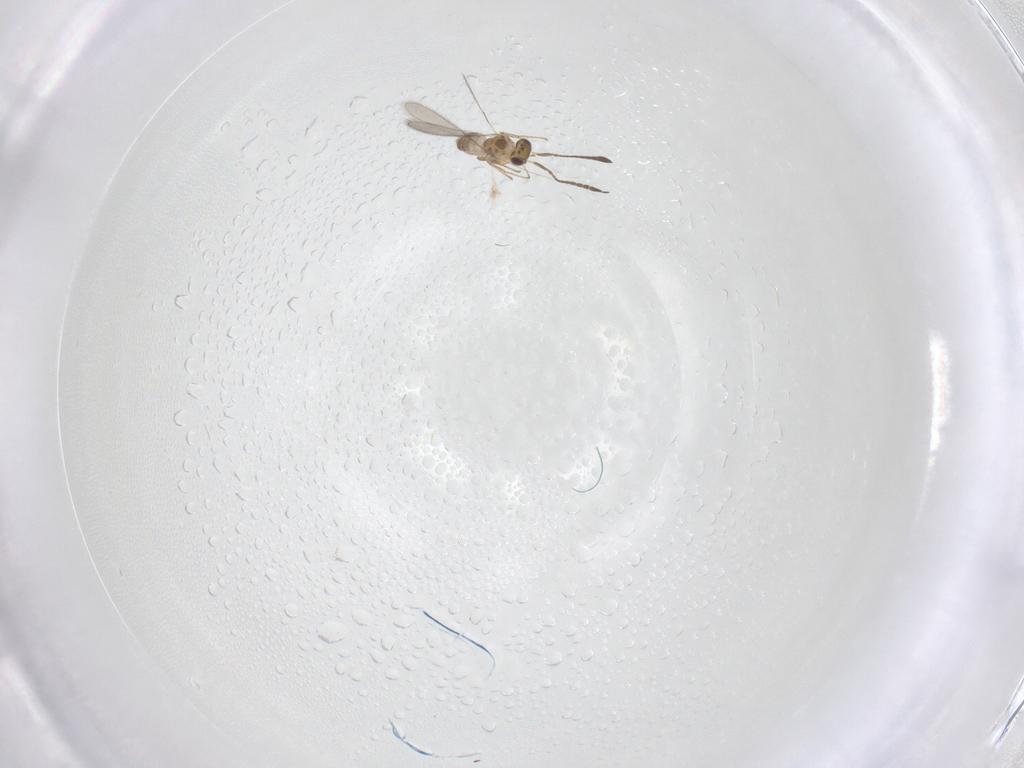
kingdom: Animalia
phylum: Arthropoda
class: Insecta
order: Hymenoptera
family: Mymaridae
